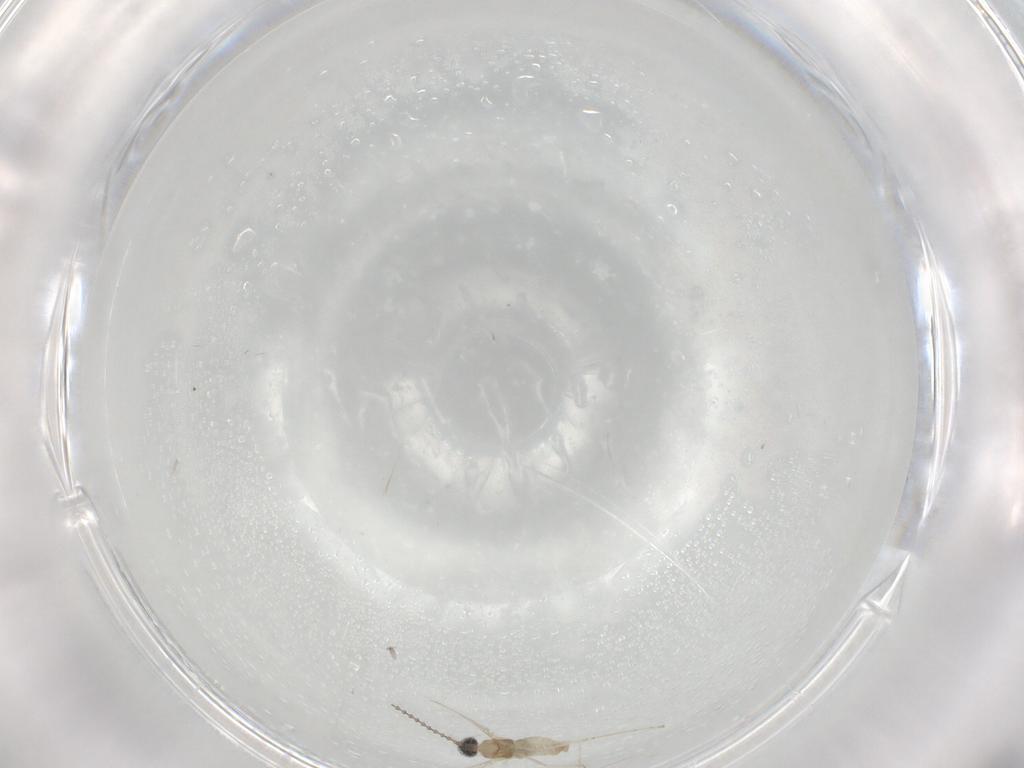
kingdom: Animalia
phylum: Arthropoda
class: Insecta
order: Diptera
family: Cecidomyiidae
